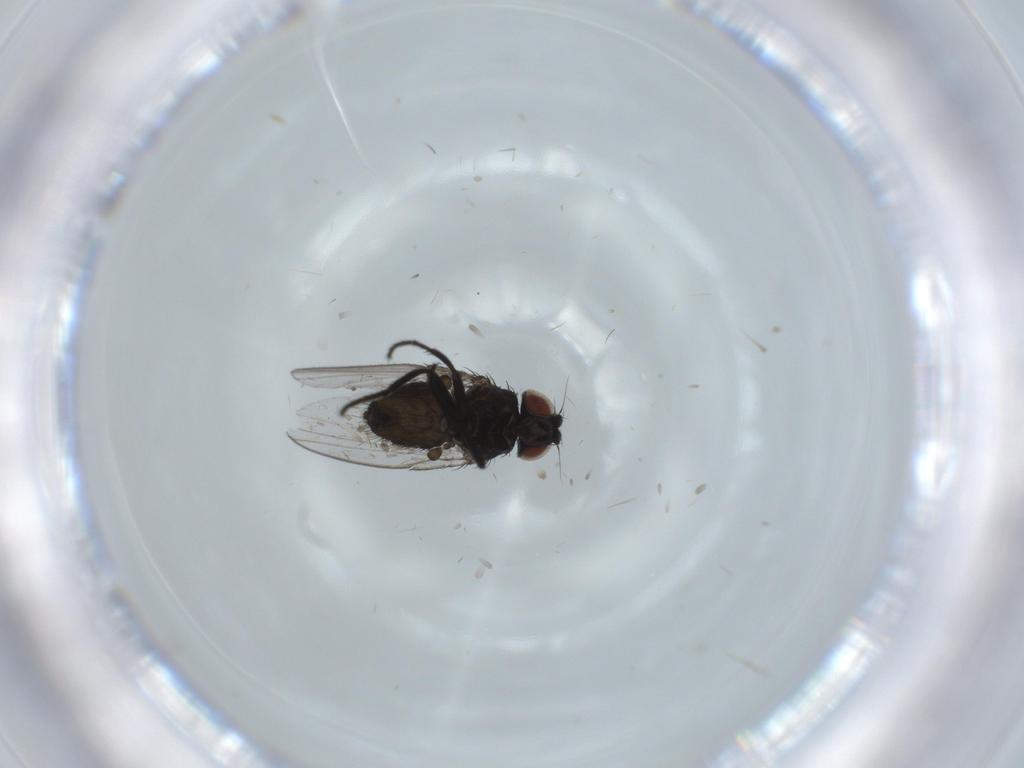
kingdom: Animalia
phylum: Arthropoda
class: Insecta
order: Diptera
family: Milichiidae
